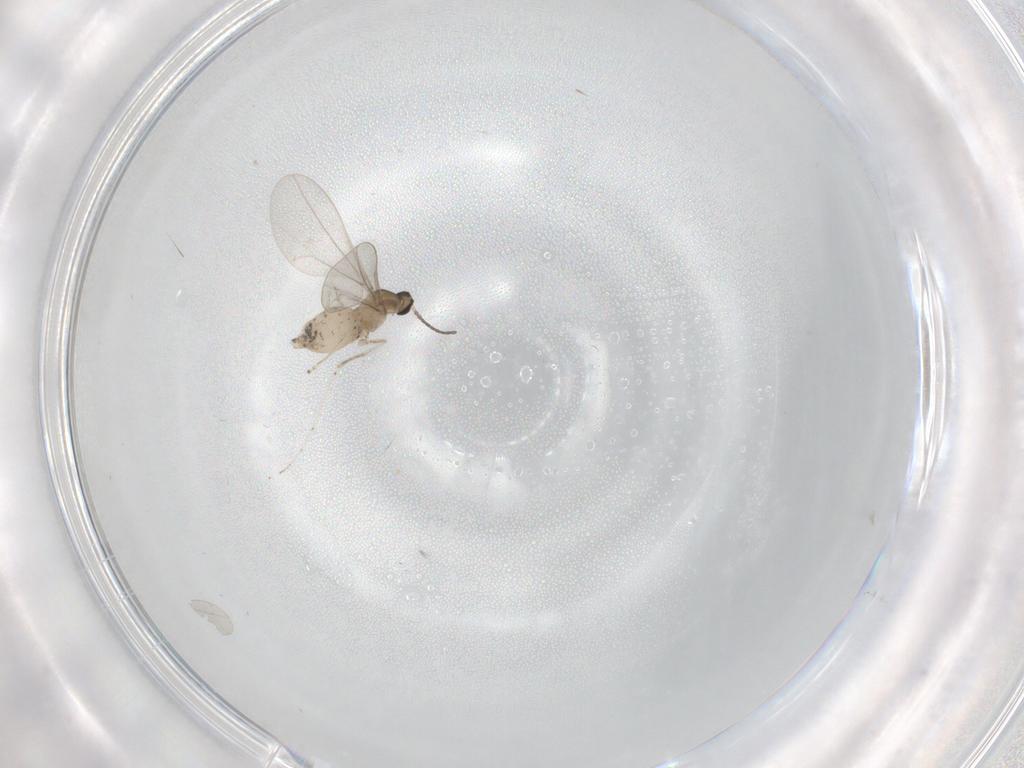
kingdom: Animalia
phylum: Arthropoda
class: Insecta
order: Diptera
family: Cecidomyiidae
